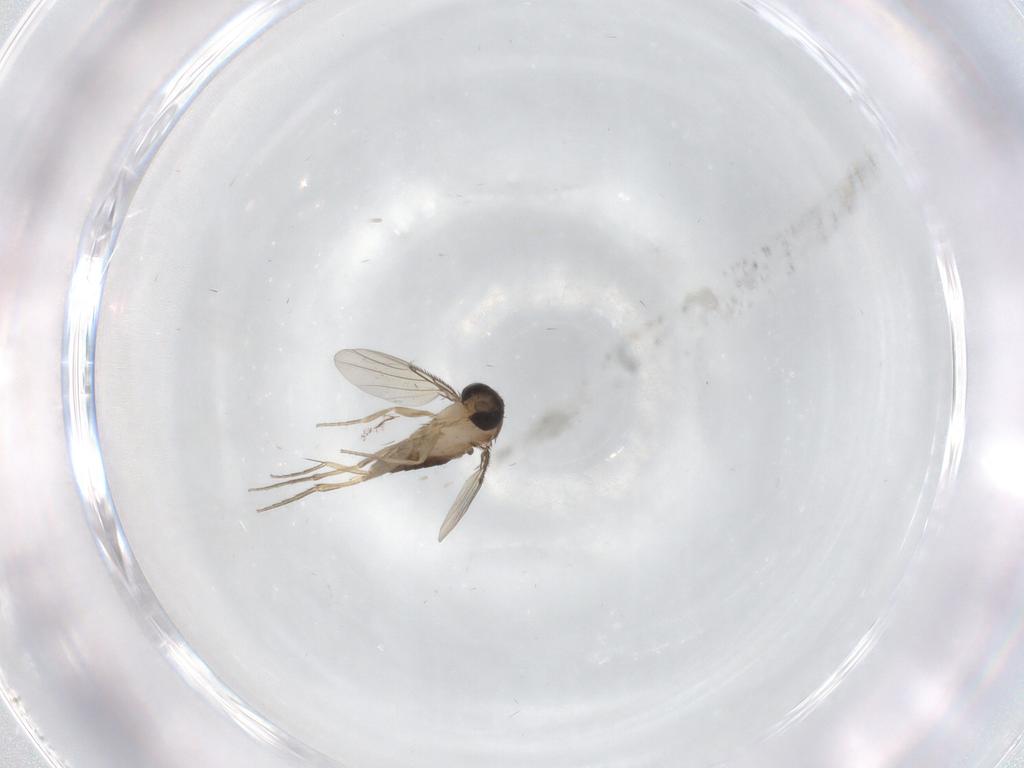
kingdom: Animalia
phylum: Arthropoda
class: Insecta
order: Diptera
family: Phoridae
